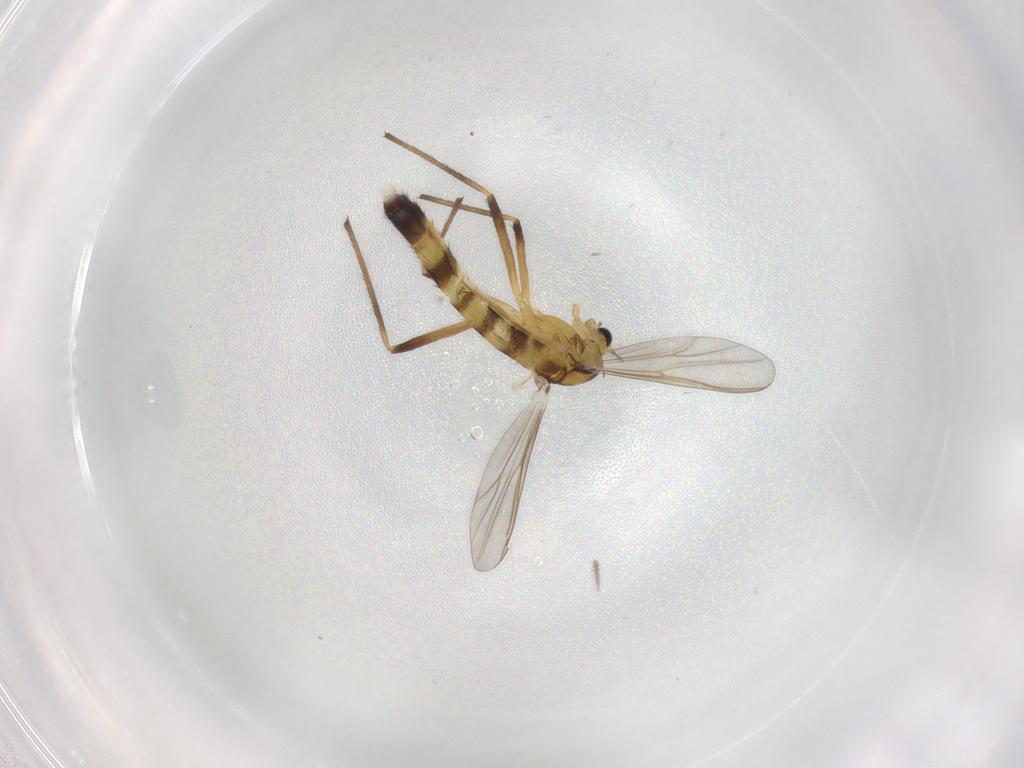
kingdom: Animalia
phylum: Arthropoda
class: Insecta
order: Diptera
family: Chironomidae
